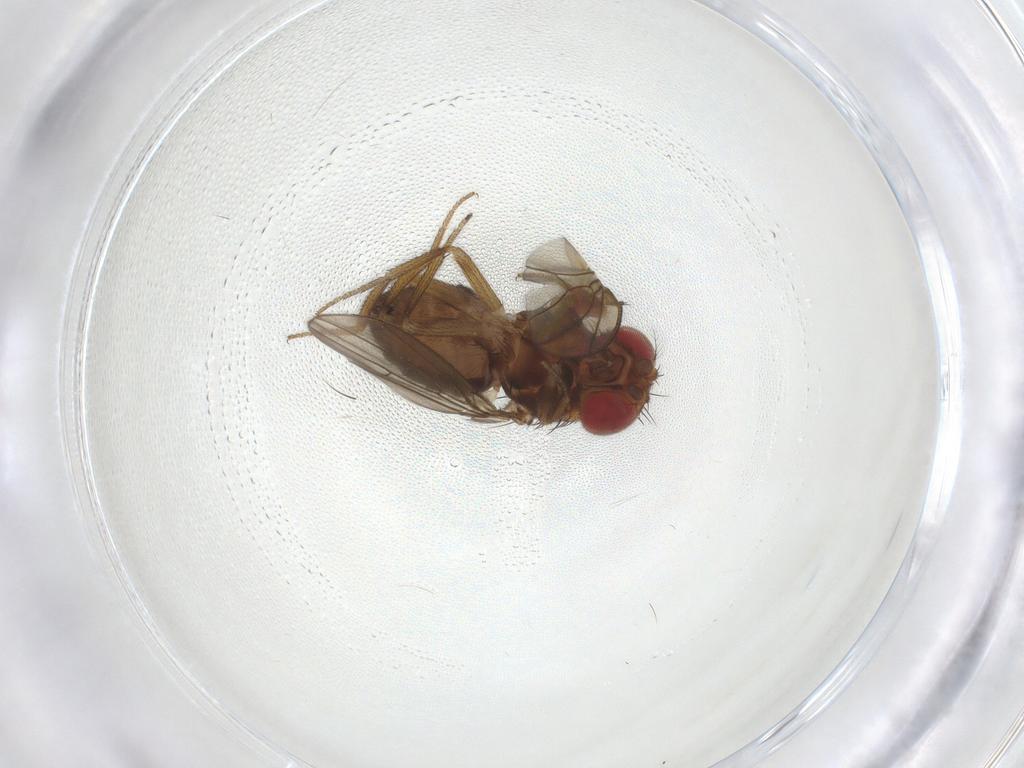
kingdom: Animalia
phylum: Arthropoda
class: Insecta
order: Diptera
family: Drosophilidae
